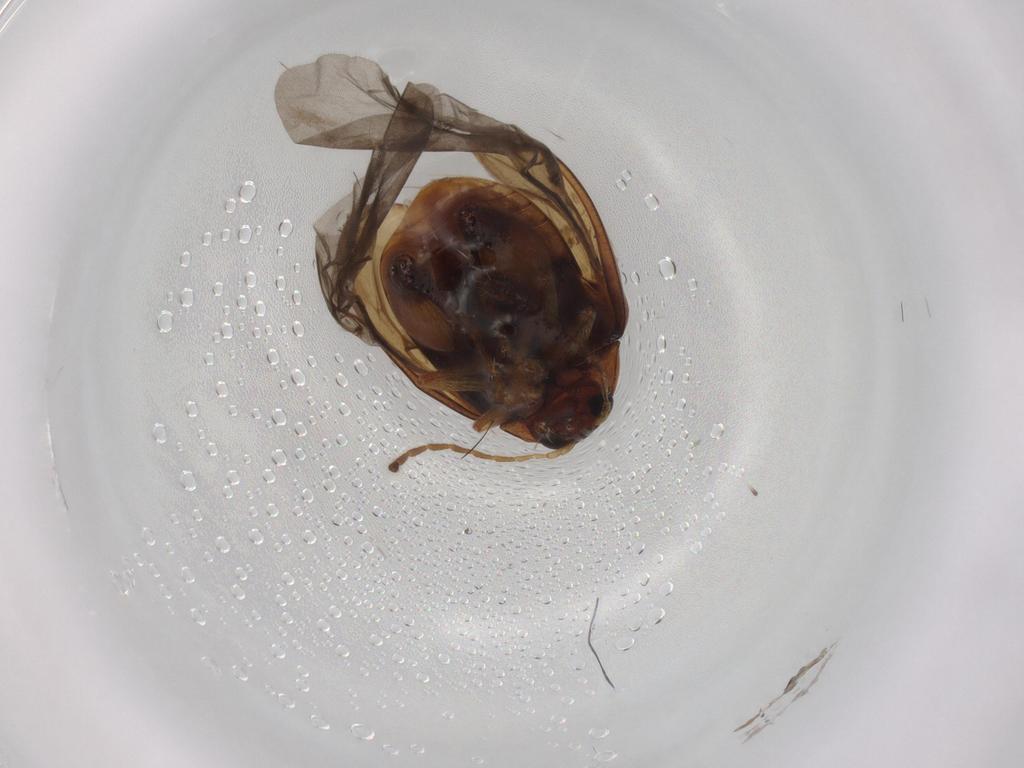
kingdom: Animalia
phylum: Arthropoda
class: Insecta
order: Coleoptera
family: Chrysomelidae
